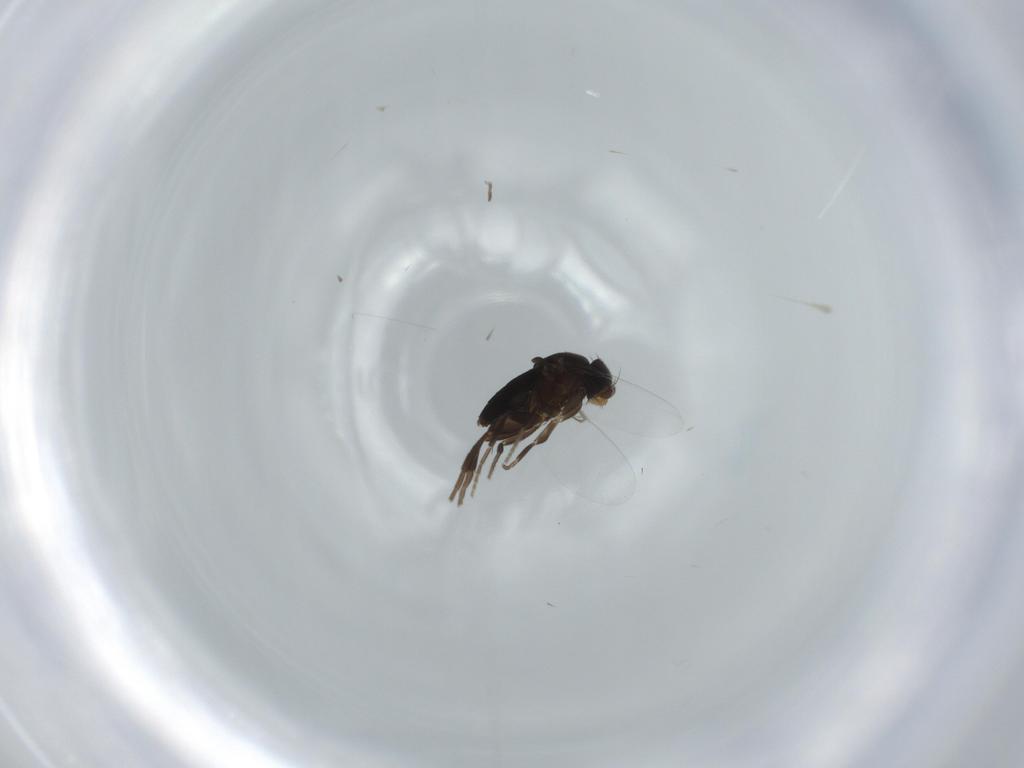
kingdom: Animalia
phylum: Arthropoda
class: Insecta
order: Diptera
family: Phoridae
